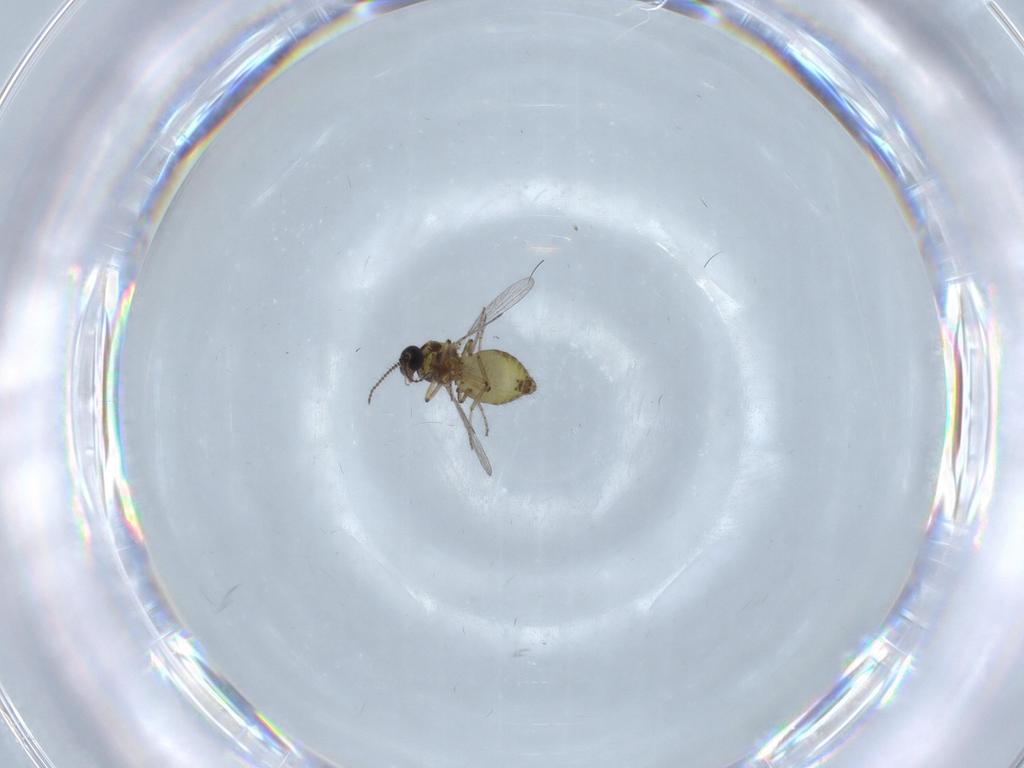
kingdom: Animalia
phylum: Arthropoda
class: Insecta
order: Diptera
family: Ceratopogonidae
